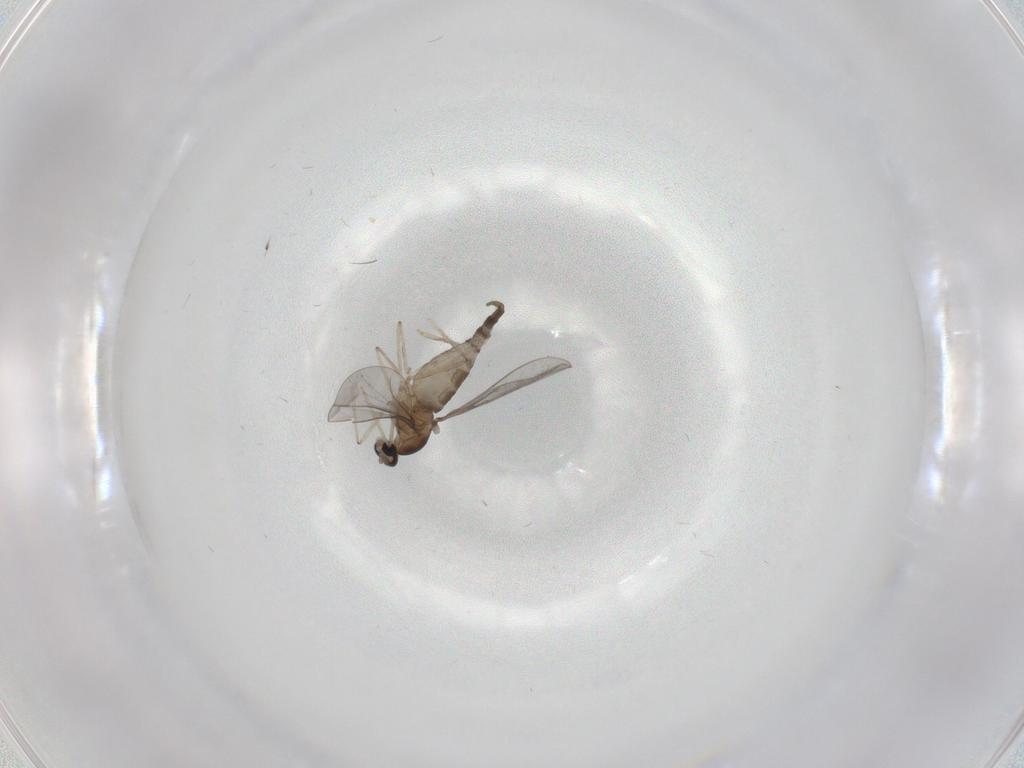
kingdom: Animalia
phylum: Arthropoda
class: Insecta
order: Diptera
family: Cecidomyiidae
